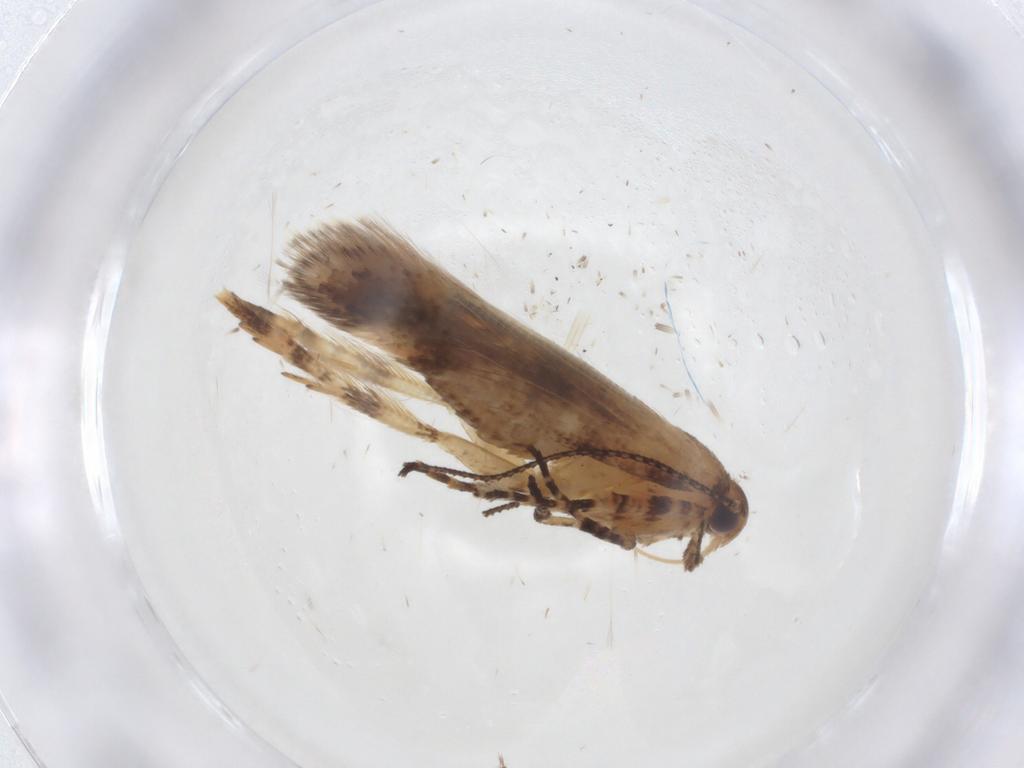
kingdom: Animalia
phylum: Arthropoda
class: Insecta
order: Lepidoptera
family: Gelechiidae
